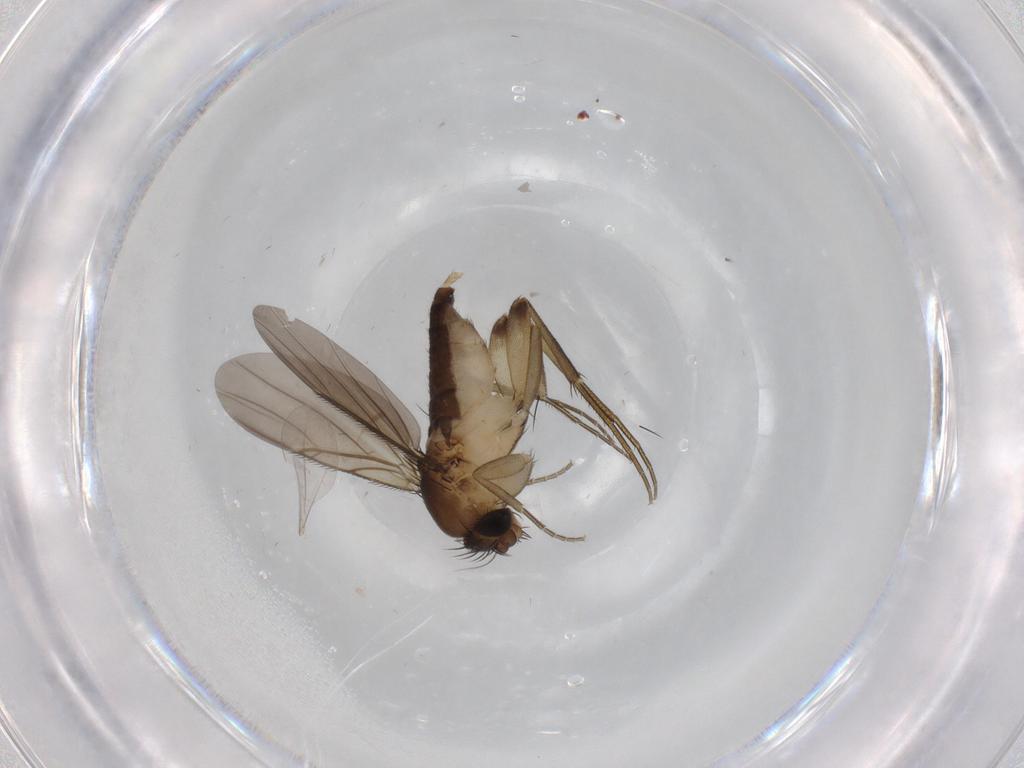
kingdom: Animalia
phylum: Arthropoda
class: Insecta
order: Diptera
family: Phoridae
